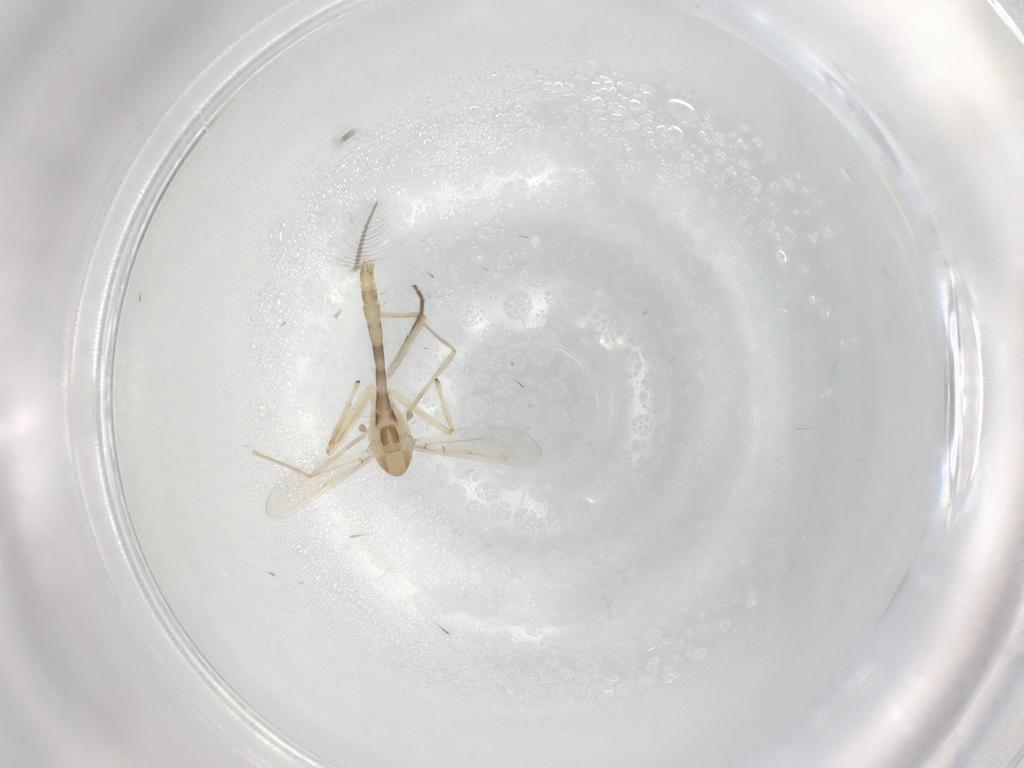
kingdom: Animalia
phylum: Arthropoda
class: Insecta
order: Diptera
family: Chironomidae
